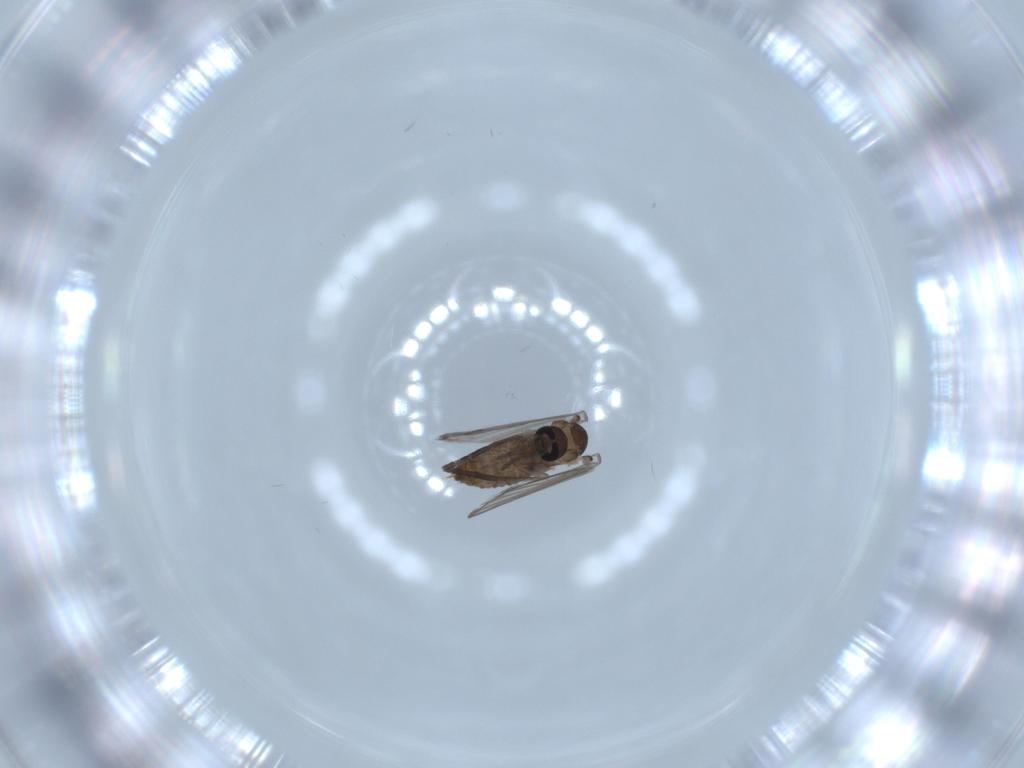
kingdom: Animalia
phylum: Arthropoda
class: Insecta
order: Diptera
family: Psychodidae
